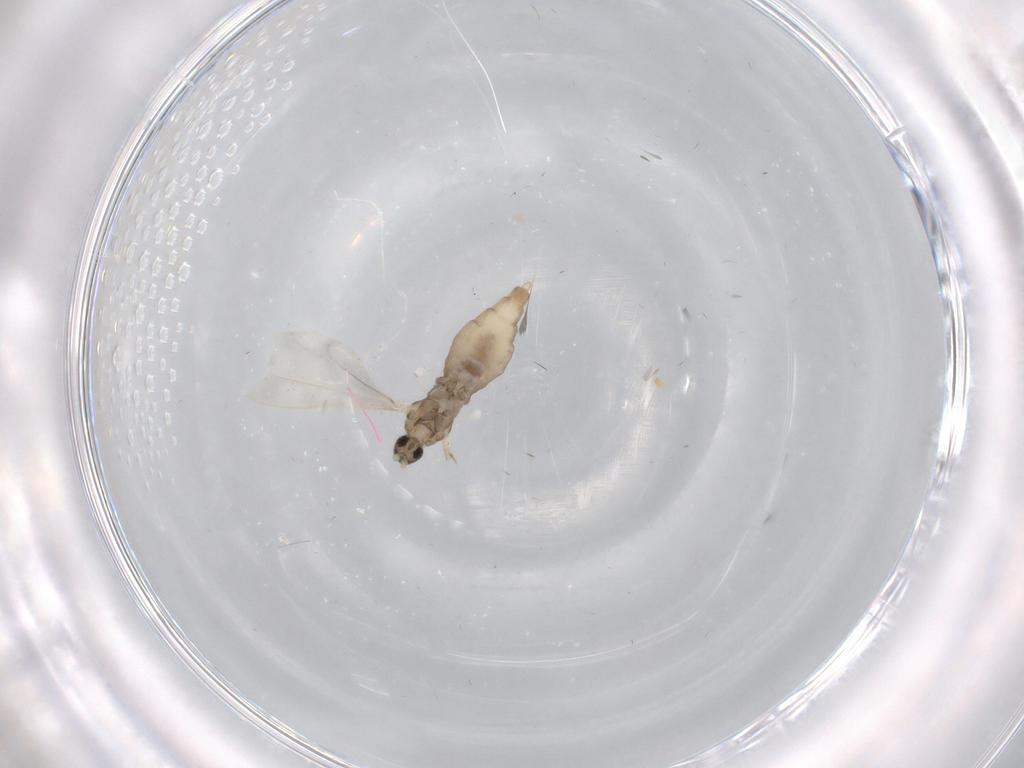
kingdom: Animalia
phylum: Arthropoda
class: Insecta
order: Diptera
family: Cecidomyiidae
